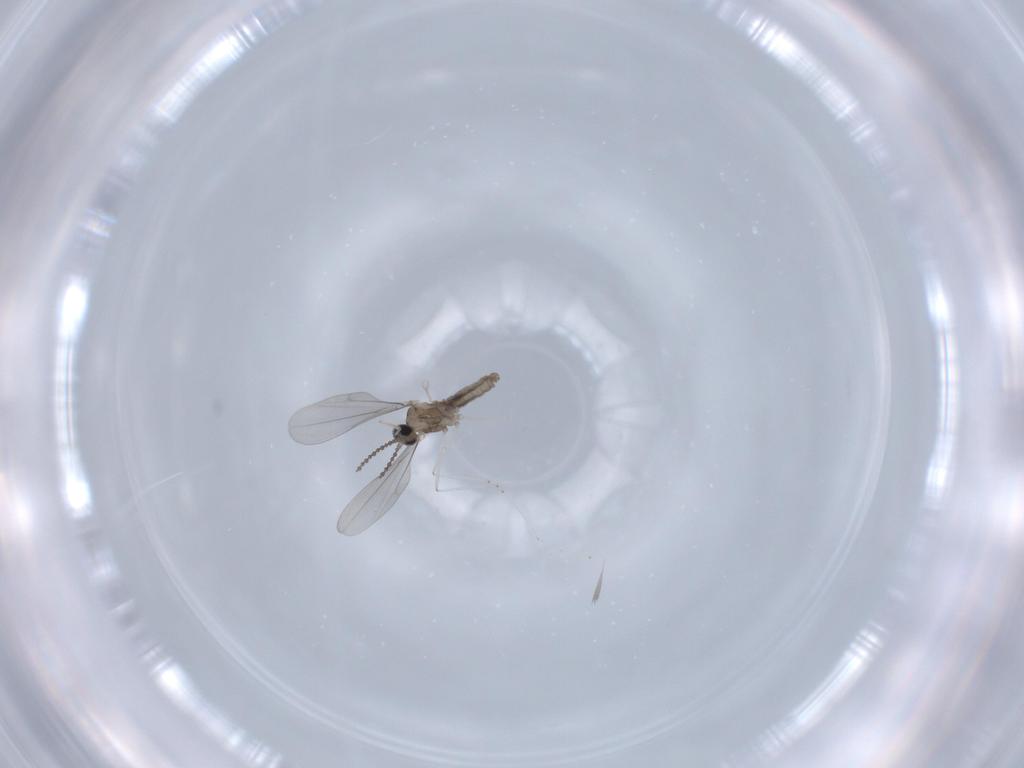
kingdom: Animalia
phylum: Arthropoda
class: Insecta
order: Diptera
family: Cecidomyiidae
